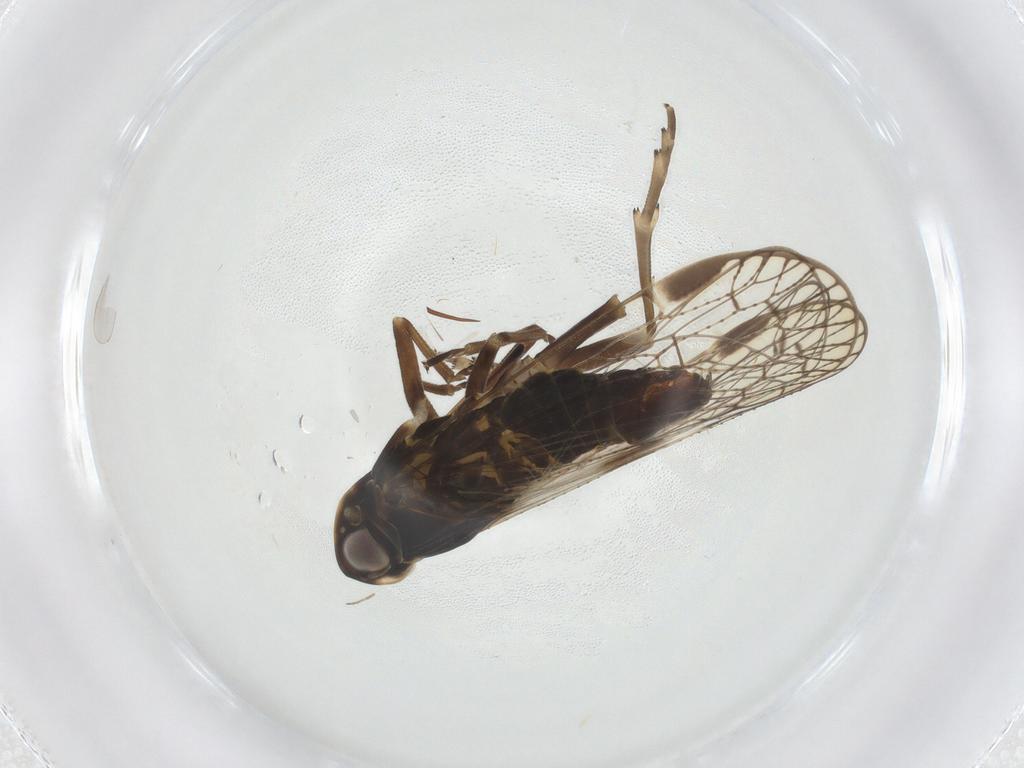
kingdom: Animalia
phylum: Arthropoda
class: Insecta
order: Hemiptera
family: Cixiidae
